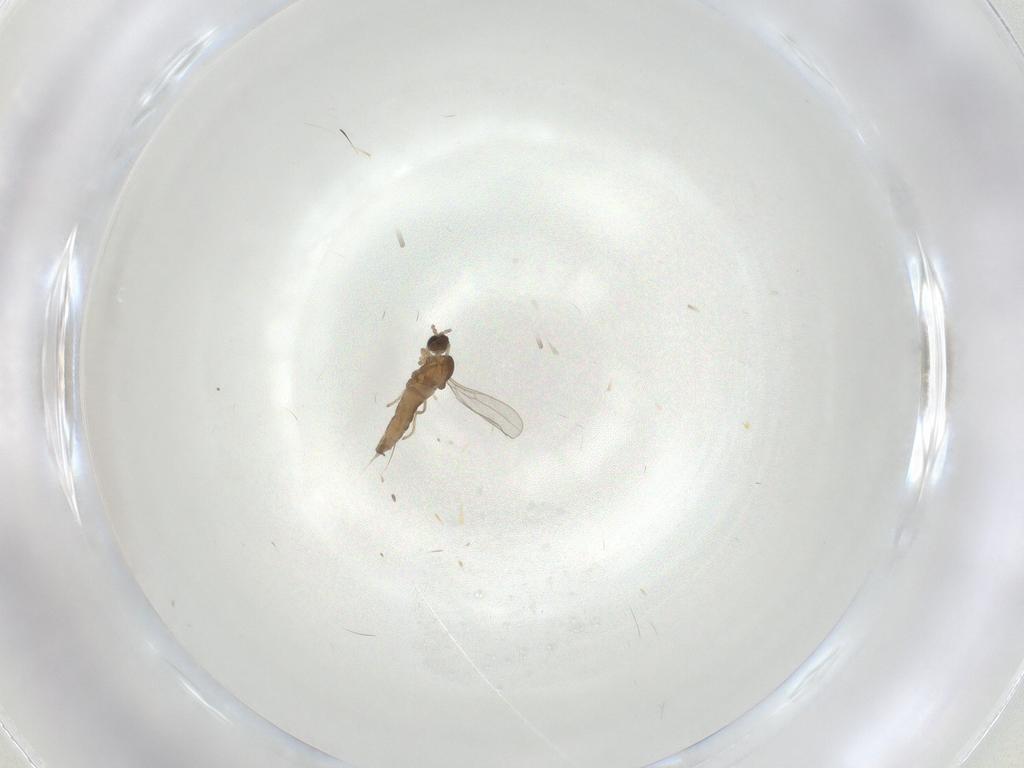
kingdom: Animalia
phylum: Arthropoda
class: Insecta
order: Diptera
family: Cecidomyiidae
